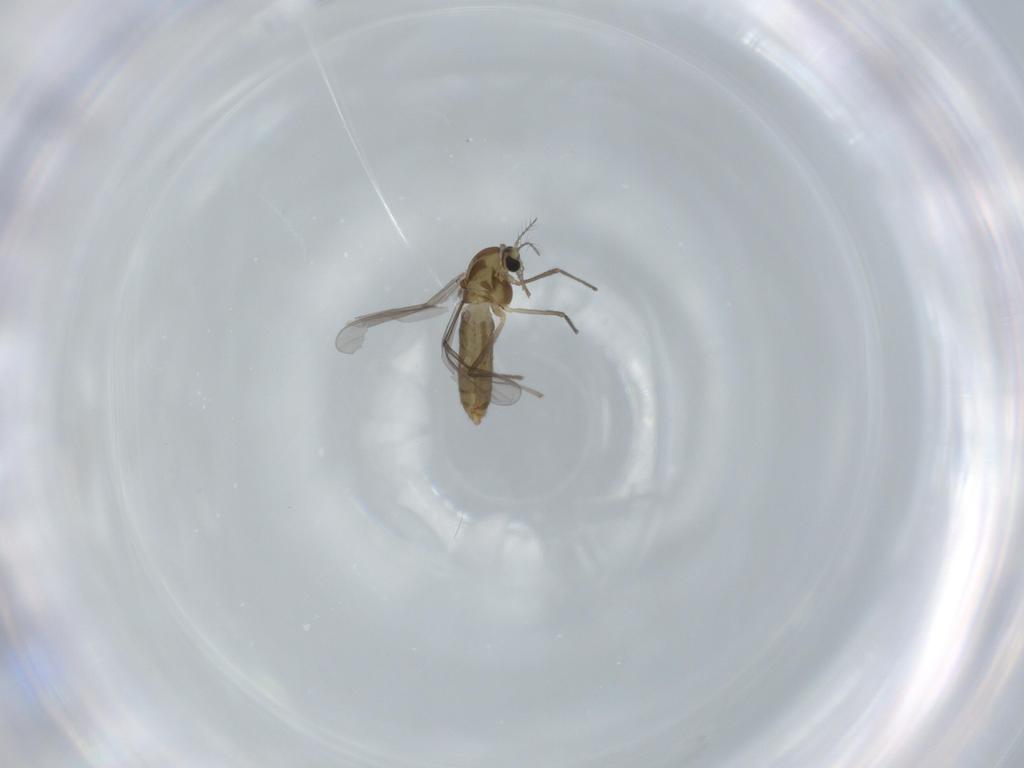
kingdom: Animalia
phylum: Arthropoda
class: Insecta
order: Diptera
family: Chironomidae
